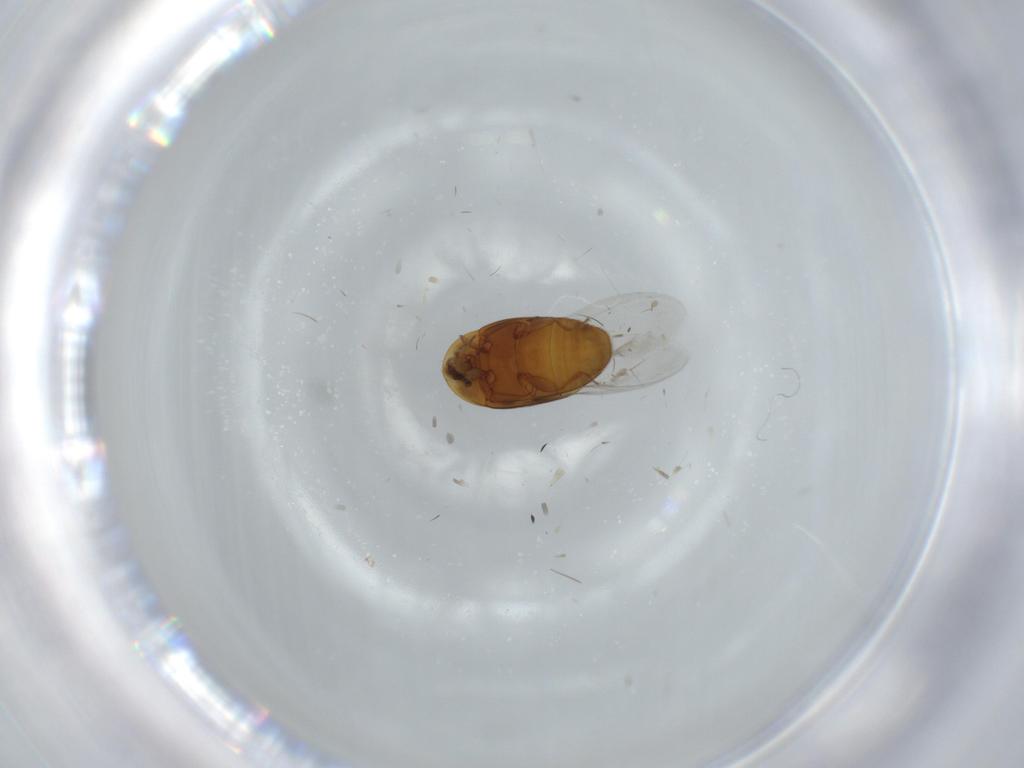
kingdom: Animalia
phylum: Arthropoda
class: Insecta
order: Coleoptera
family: Corylophidae
